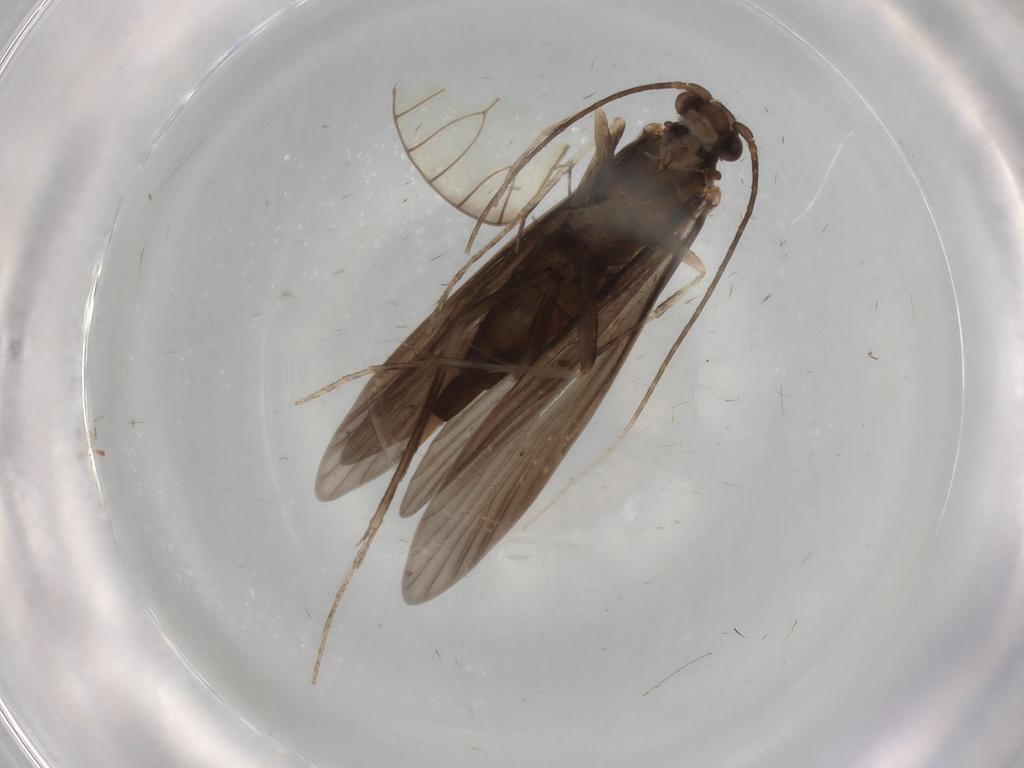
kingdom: Animalia
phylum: Arthropoda
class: Insecta
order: Trichoptera
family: Xiphocentronidae
